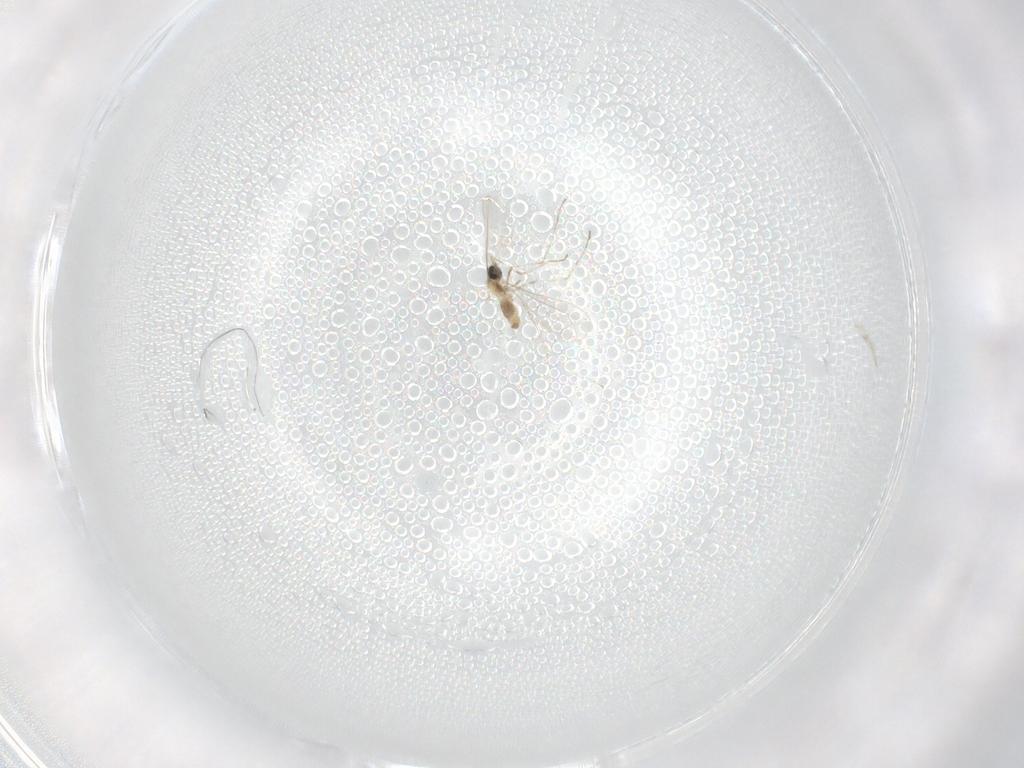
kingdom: Animalia
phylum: Arthropoda
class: Insecta
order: Diptera
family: Cecidomyiidae
